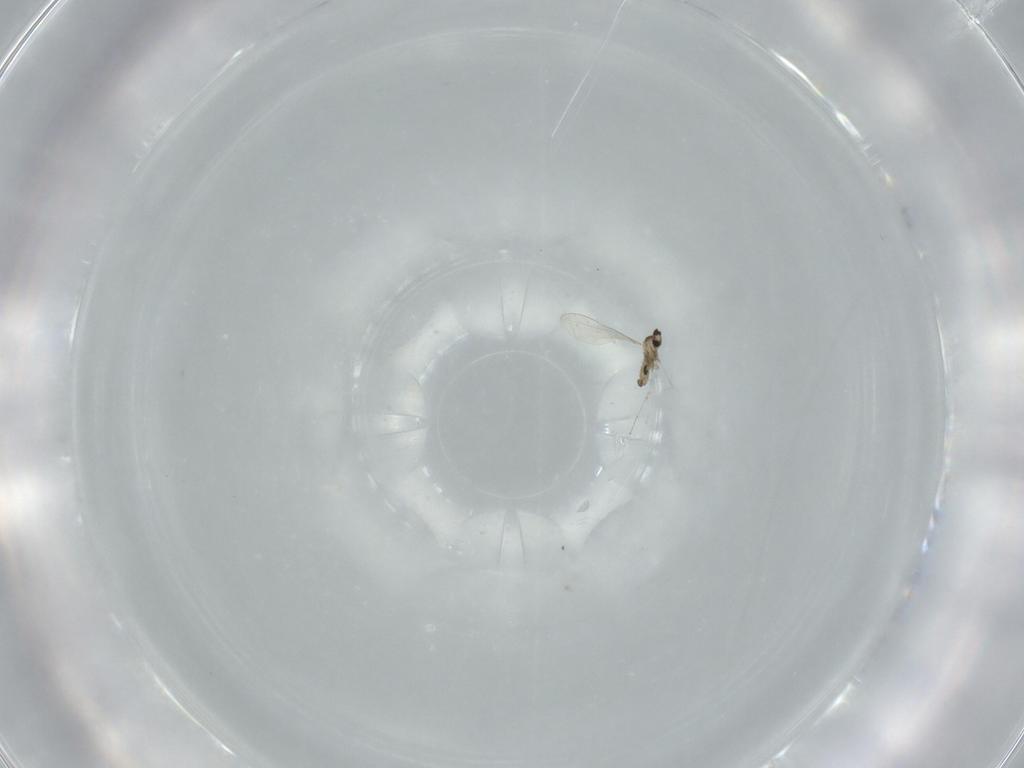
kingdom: Animalia
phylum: Arthropoda
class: Insecta
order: Diptera
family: Cecidomyiidae
